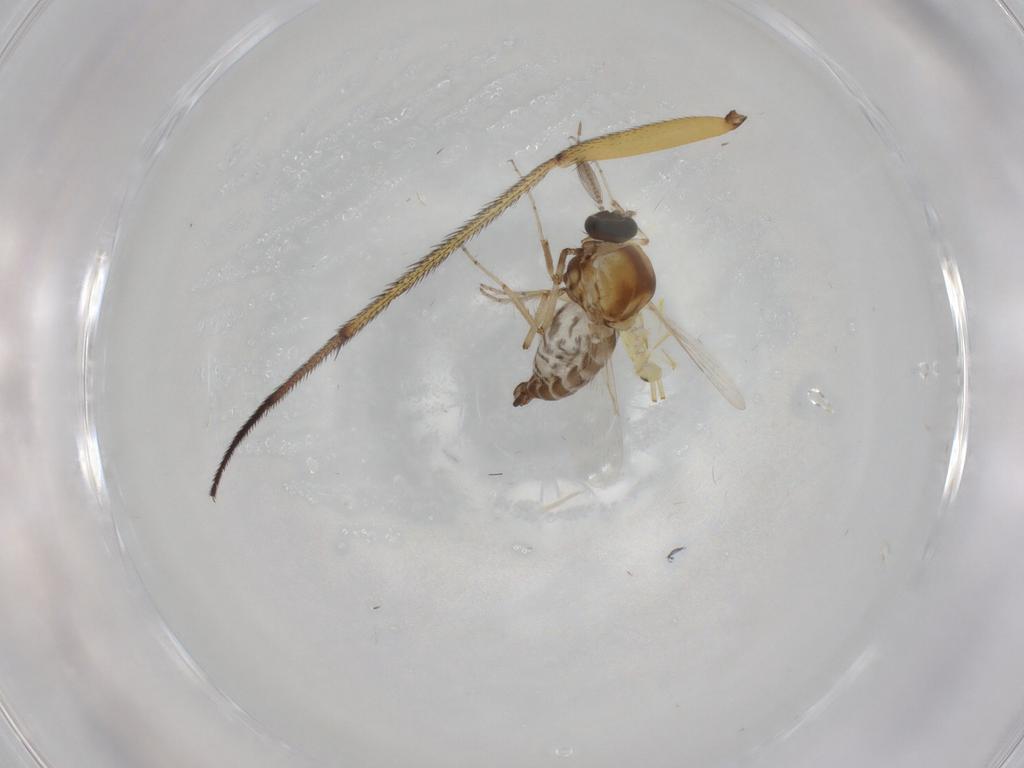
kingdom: Animalia
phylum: Arthropoda
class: Insecta
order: Diptera
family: Ceratopogonidae
